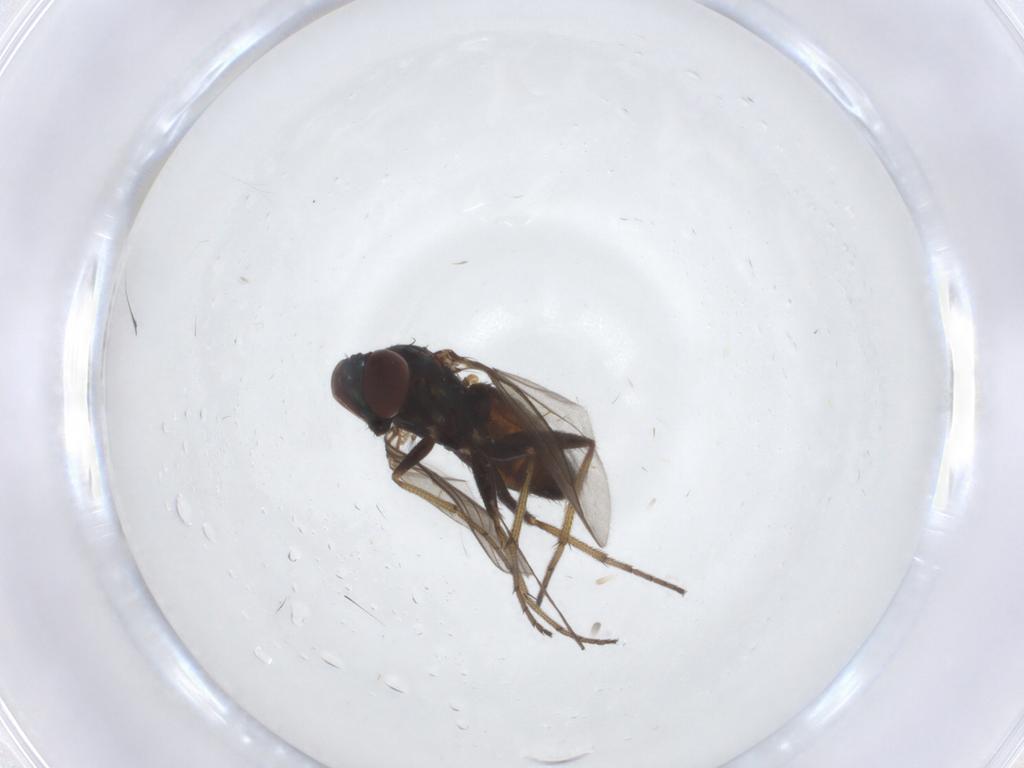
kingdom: Animalia
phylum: Arthropoda
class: Insecta
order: Diptera
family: Dolichopodidae
